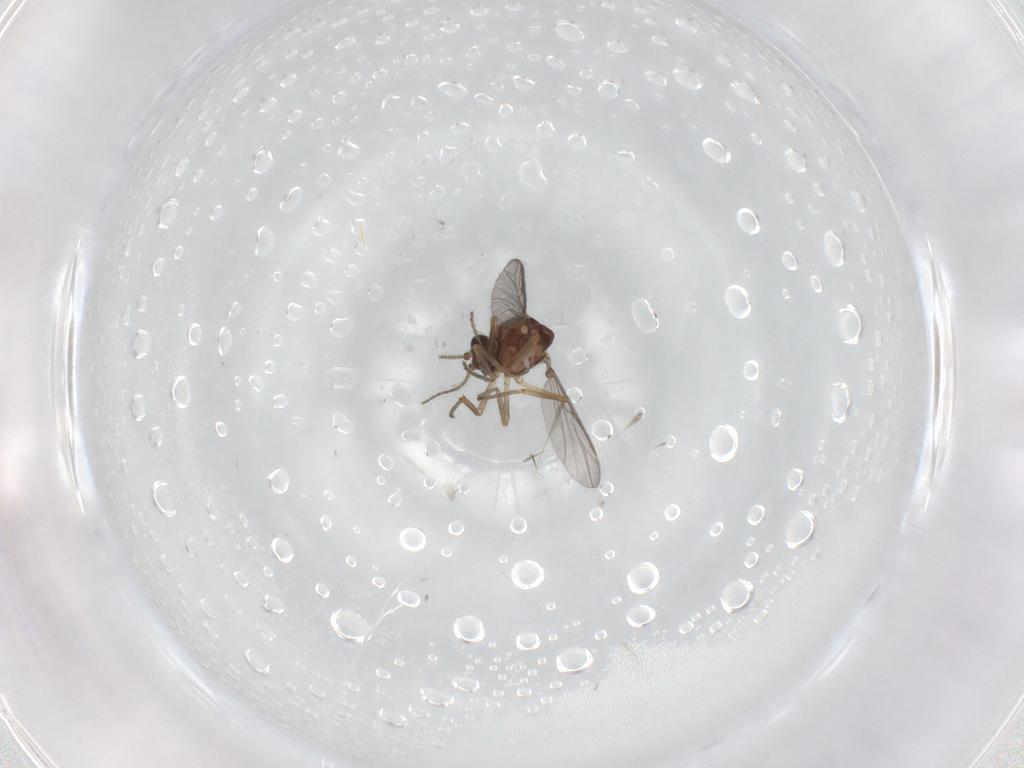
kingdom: Animalia
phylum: Arthropoda
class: Insecta
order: Diptera
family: Ceratopogonidae
